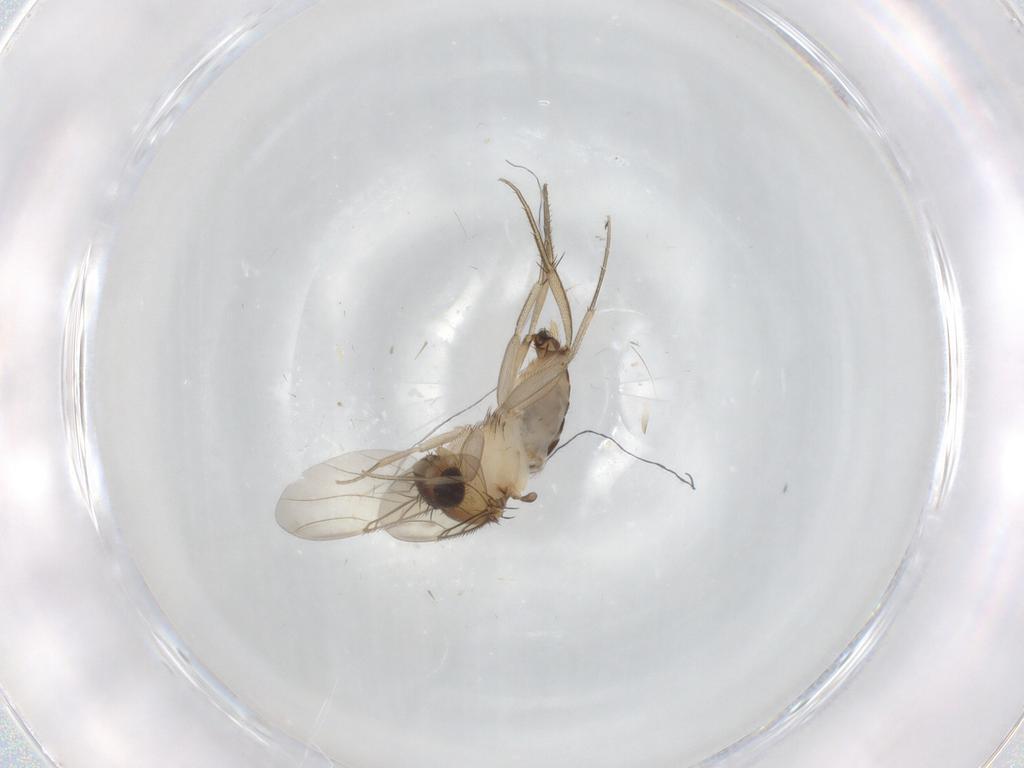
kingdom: Animalia
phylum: Arthropoda
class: Insecta
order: Diptera
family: Phoridae
